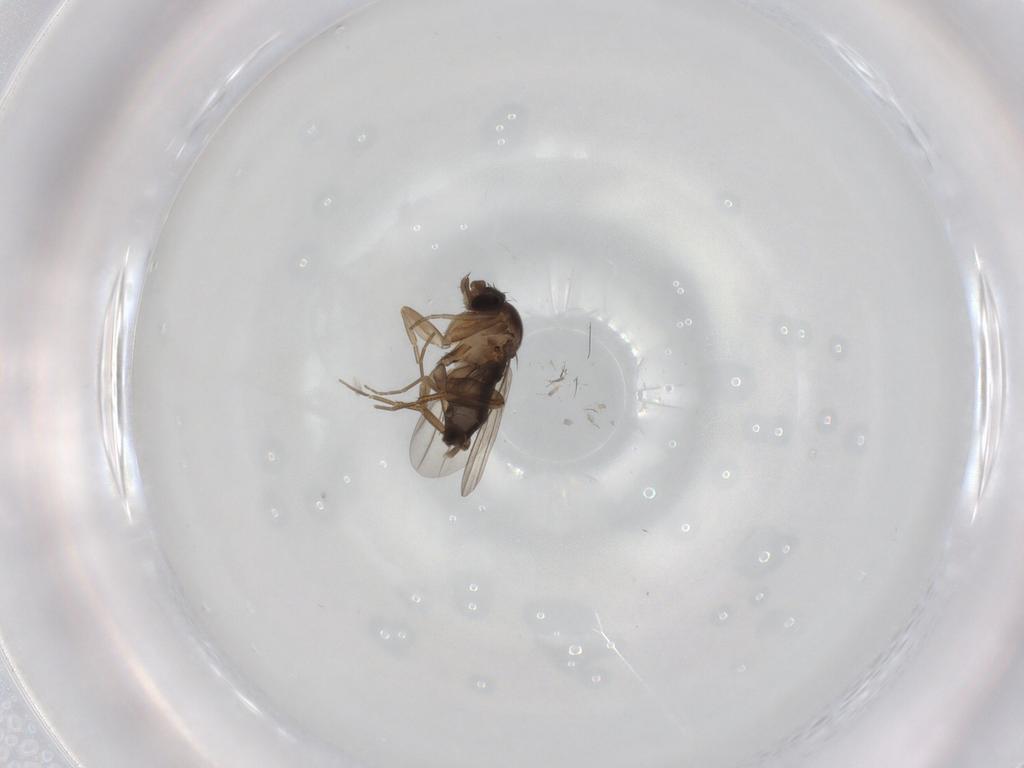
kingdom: Animalia
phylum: Arthropoda
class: Insecta
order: Diptera
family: Phoridae
